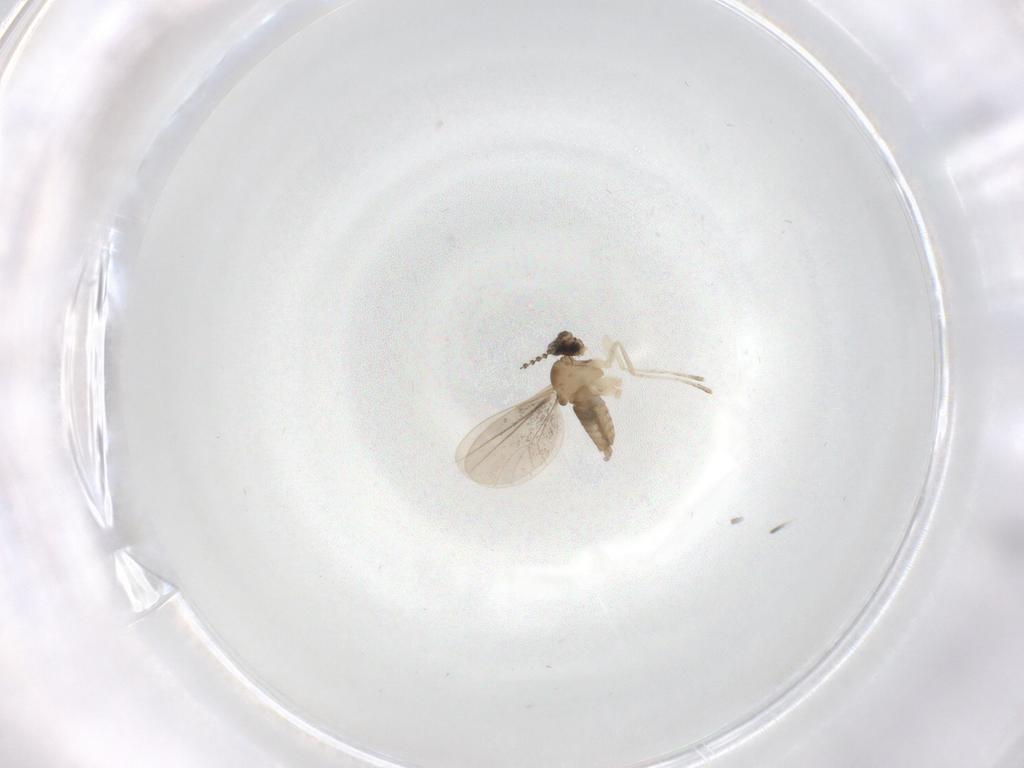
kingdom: Animalia
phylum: Arthropoda
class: Insecta
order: Diptera
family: Cecidomyiidae
